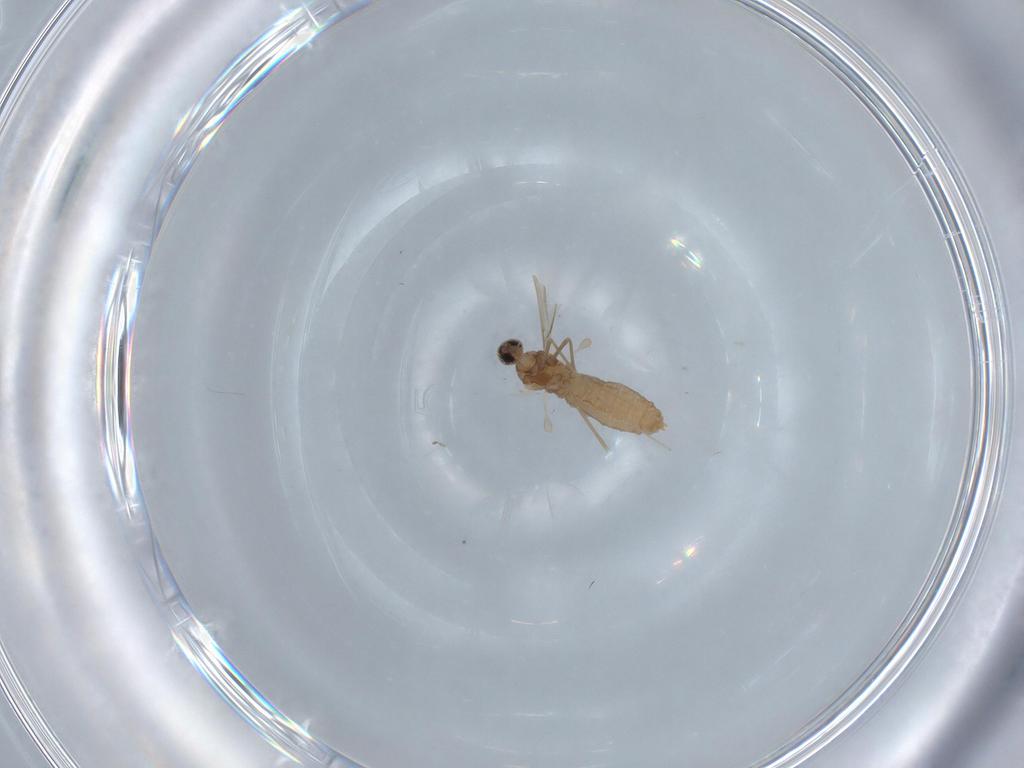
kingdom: Animalia
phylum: Arthropoda
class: Insecta
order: Diptera
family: Cecidomyiidae
